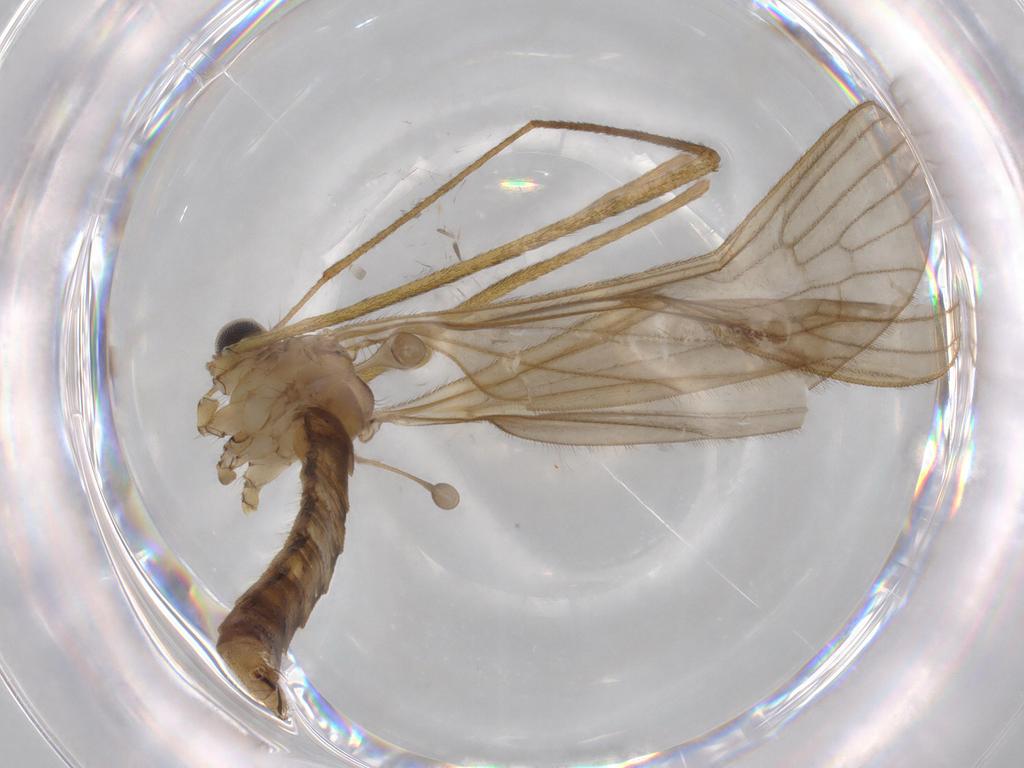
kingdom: Animalia
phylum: Arthropoda
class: Insecta
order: Diptera
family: Cecidomyiidae
